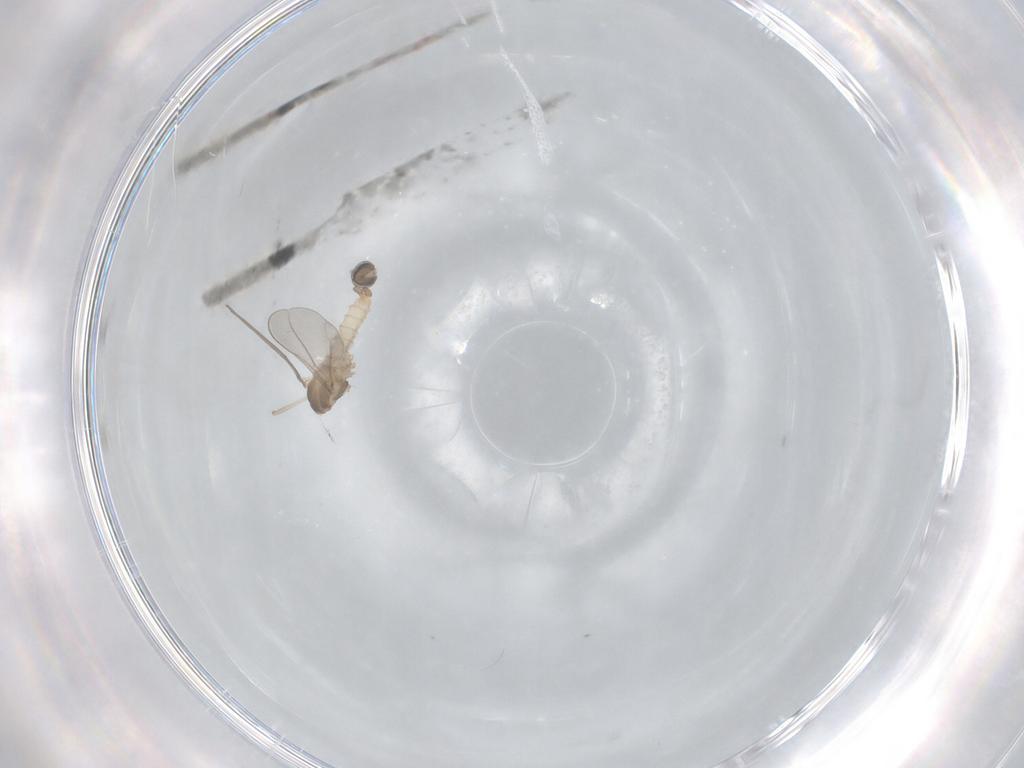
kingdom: Animalia
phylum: Arthropoda
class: Insecta
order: Diptera
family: Cecidomyiidae
